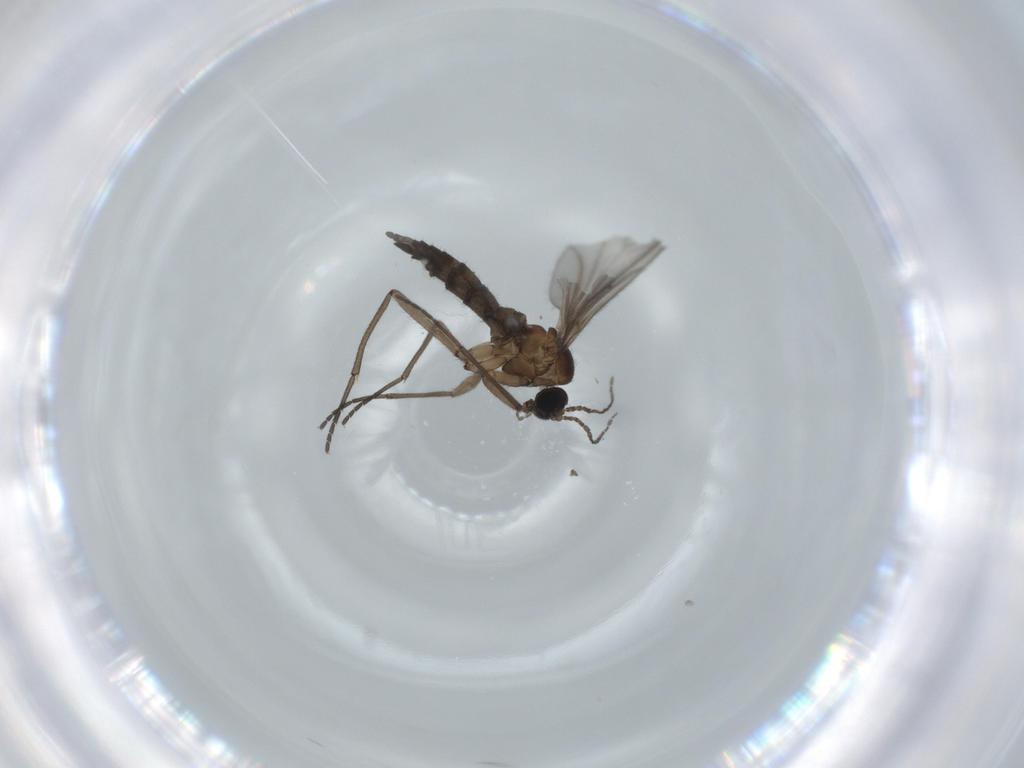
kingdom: Animalia
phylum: Arthropoda
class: Insecta
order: Diptera
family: Sciaridae
